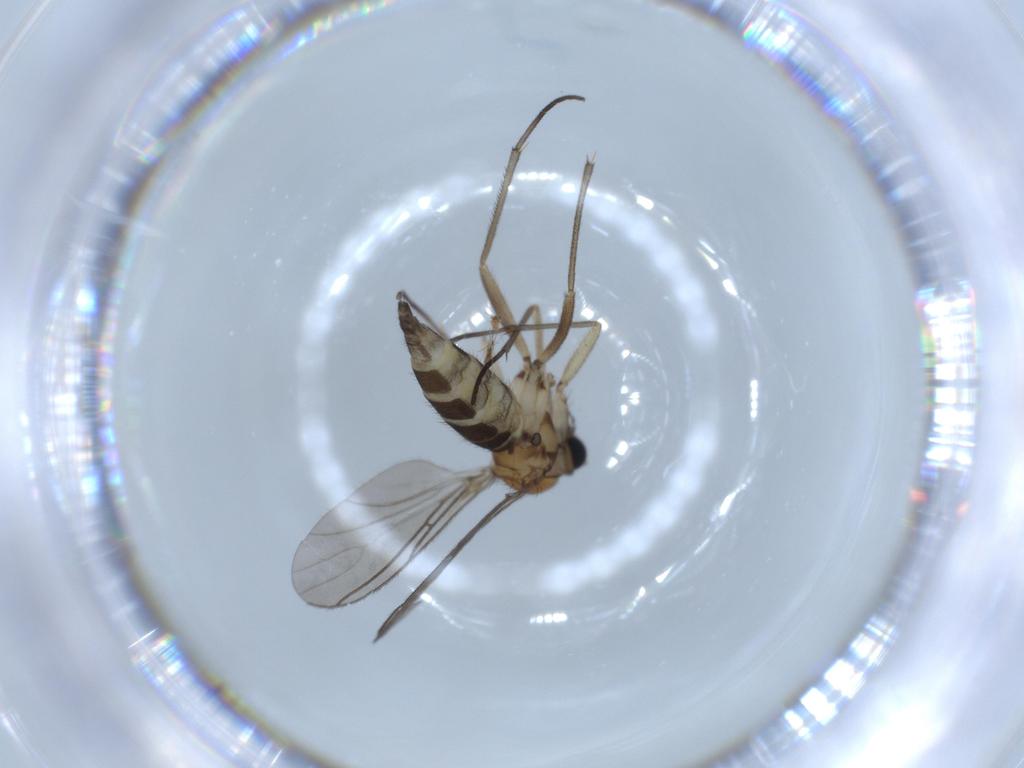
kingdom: Animalia
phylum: Arthropoda
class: Insecta
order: Diptera
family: Sciaridae
